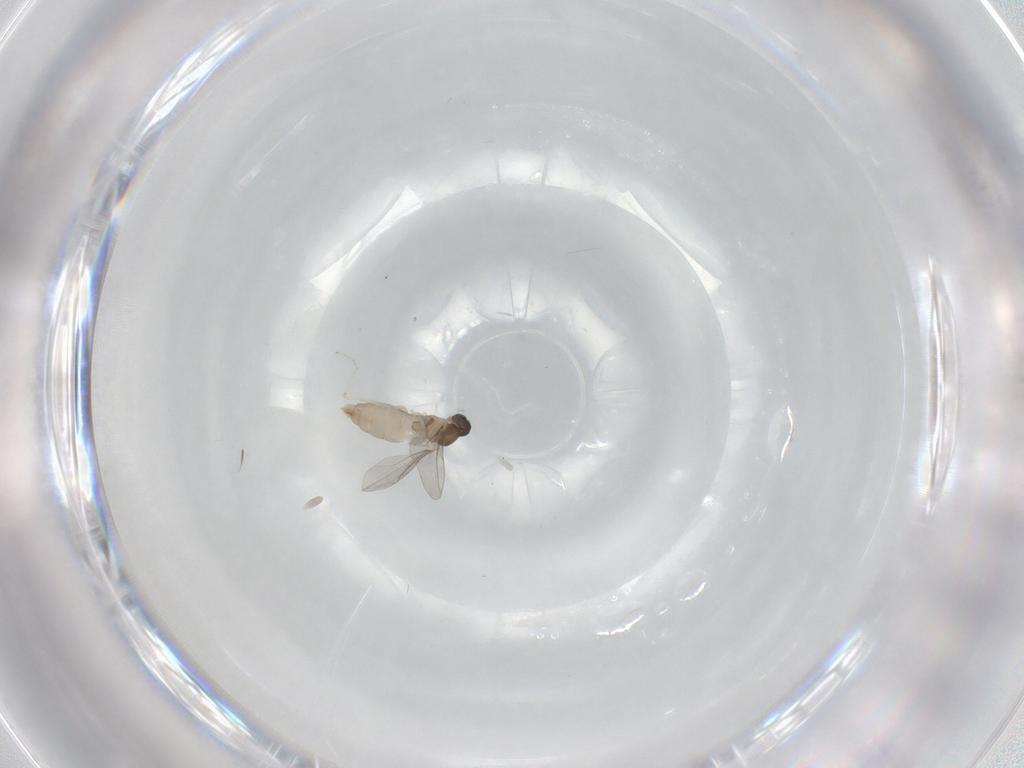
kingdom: Animalia
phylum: Arthropoda
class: Insecta
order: Diptera
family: Cecidomyiidae
